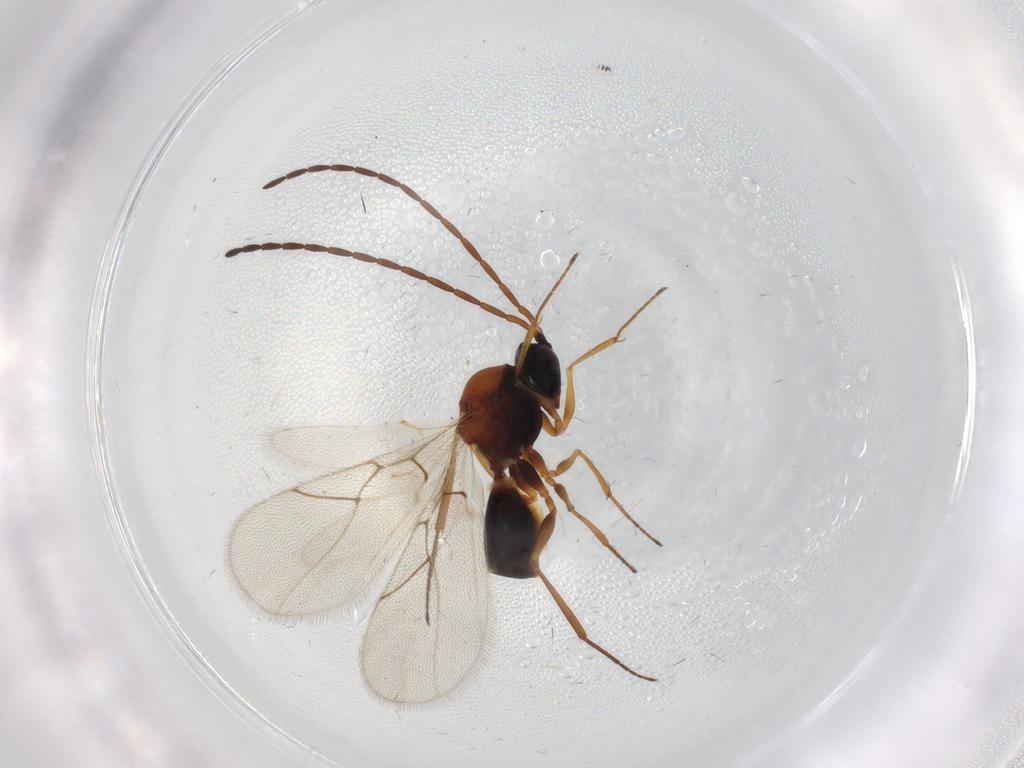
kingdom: Animalia
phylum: Arthropoda
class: Insecta
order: Hymenoptera
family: Figitidae
